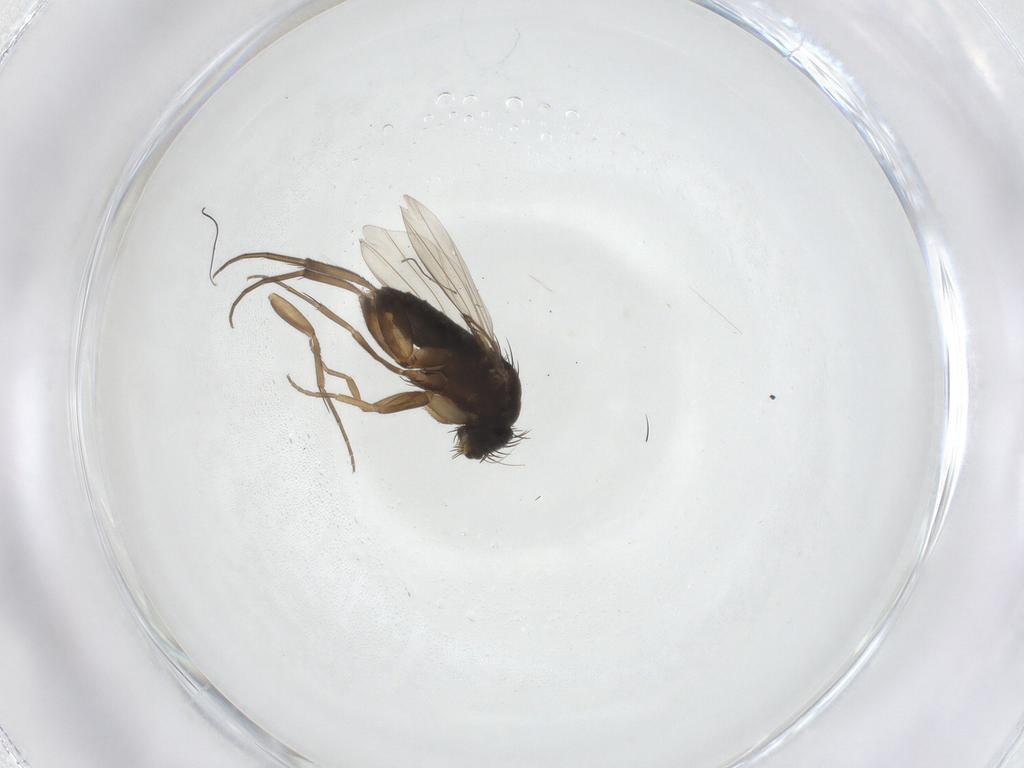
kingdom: Animalia
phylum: Arthropoda
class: Insecta
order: Diptera
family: Phoridae
